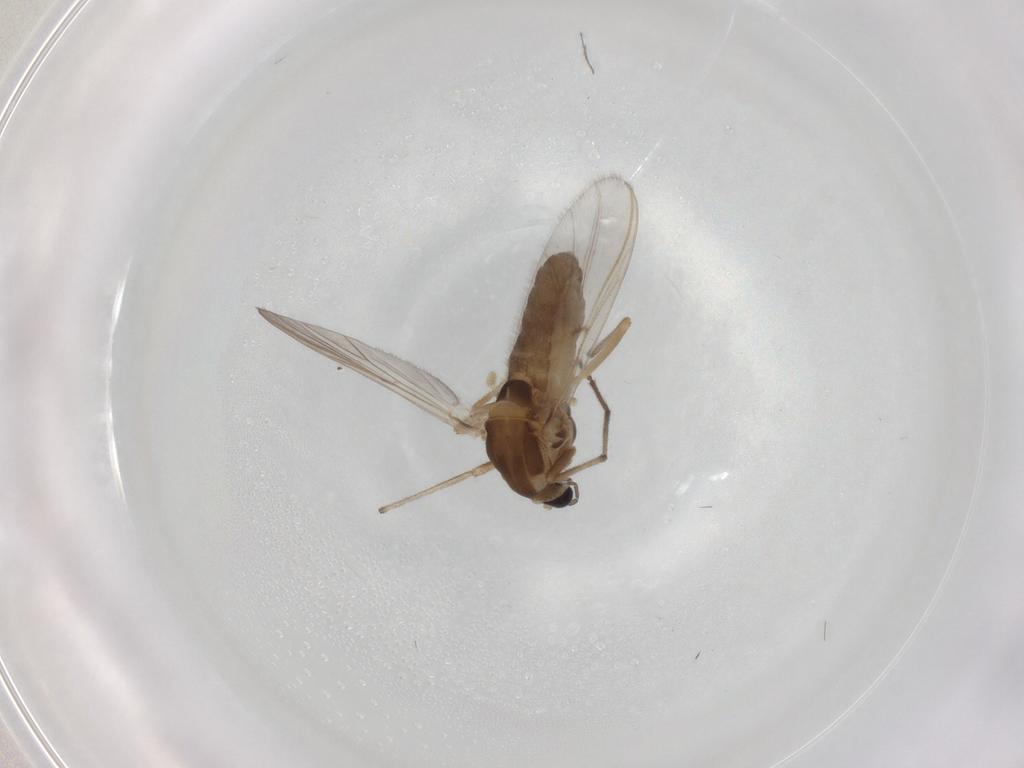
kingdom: Animalia
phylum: Arthropoda
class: Insecta
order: Diptera
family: Chironomidae
